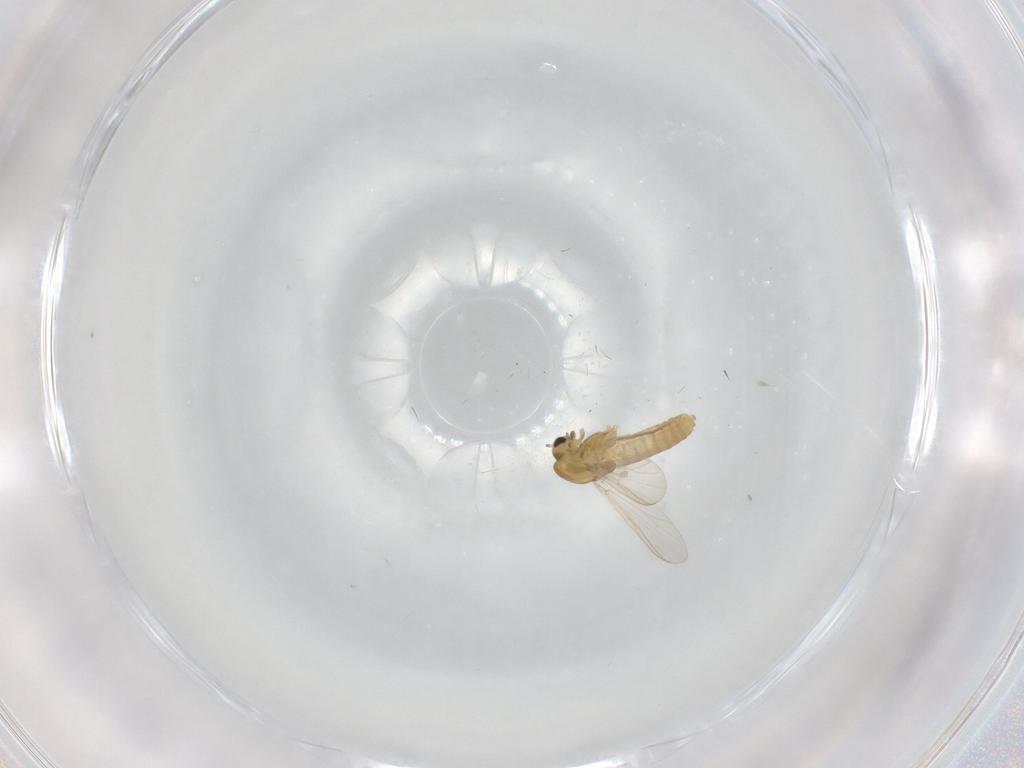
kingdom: Animalia
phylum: Arthropoda
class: Insecta
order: Diptera
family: Chironomidae
